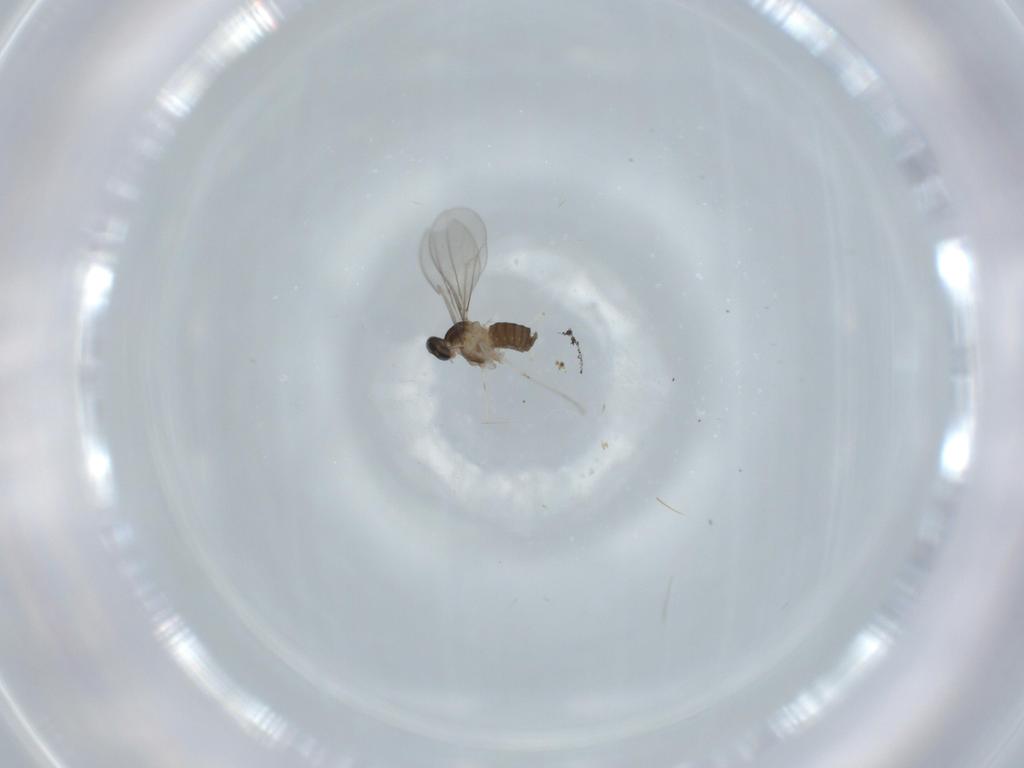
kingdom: Animalia
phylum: Arthropoda
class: Insecta
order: Diptera
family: Cecidomyiidae
